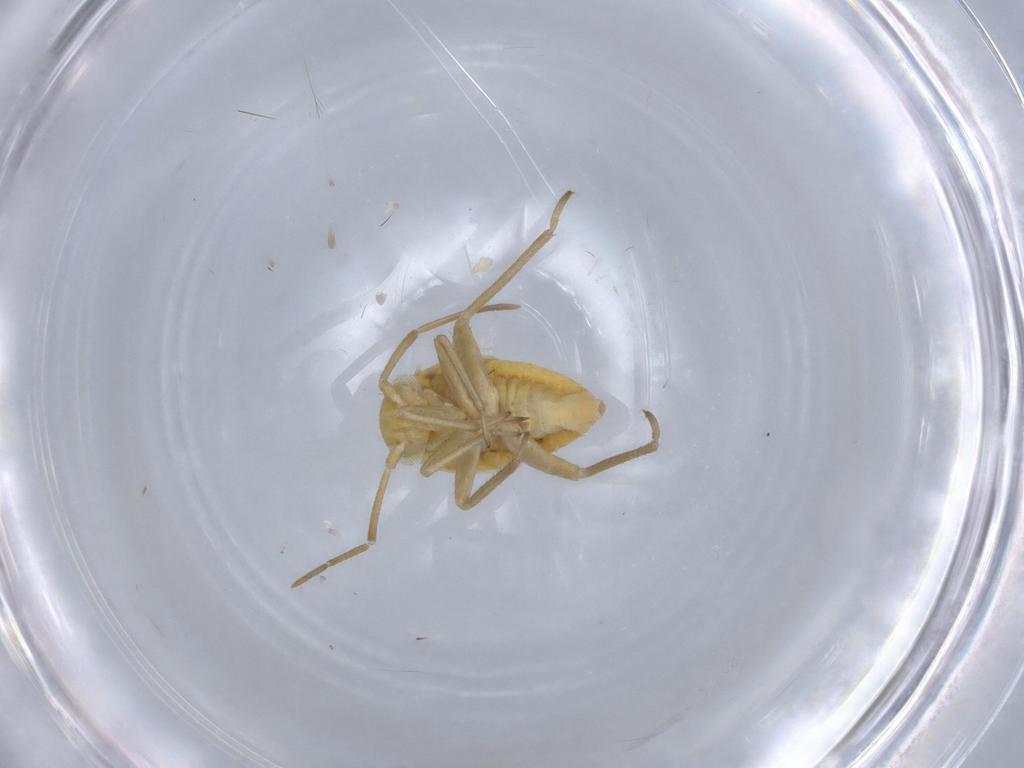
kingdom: Animalia
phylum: Arthropoda
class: Insecta
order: Hemiptera
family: Miridae
